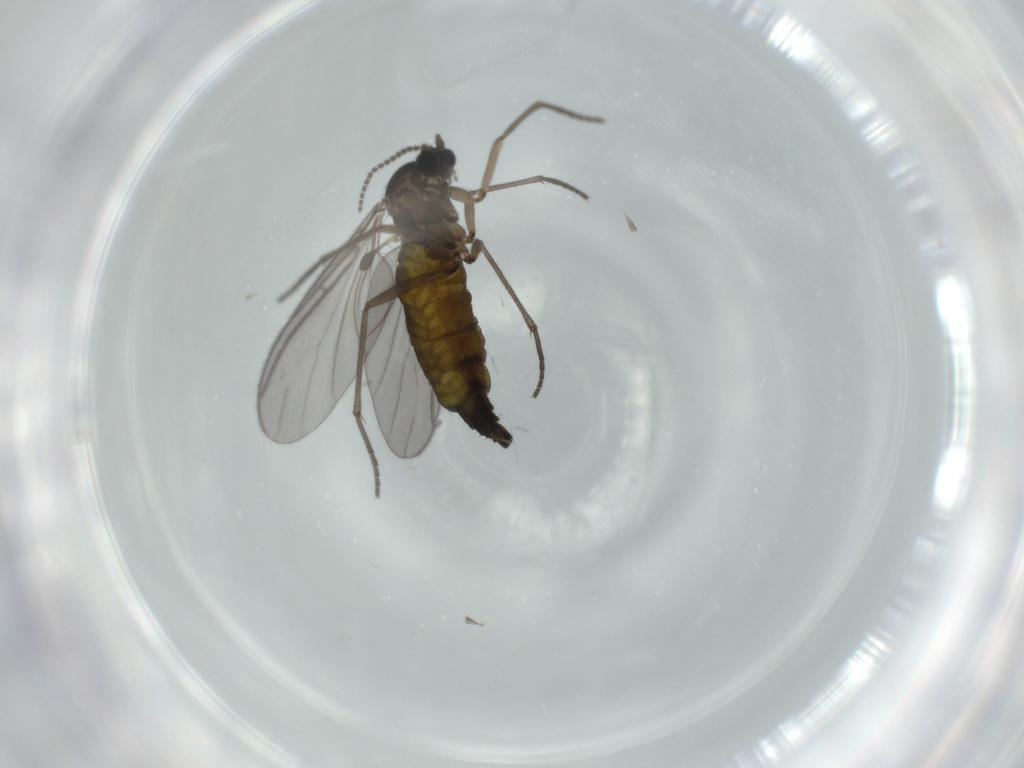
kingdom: Animalia
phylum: Arthropoda
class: Insecta
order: Diptera
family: Sciaridae
